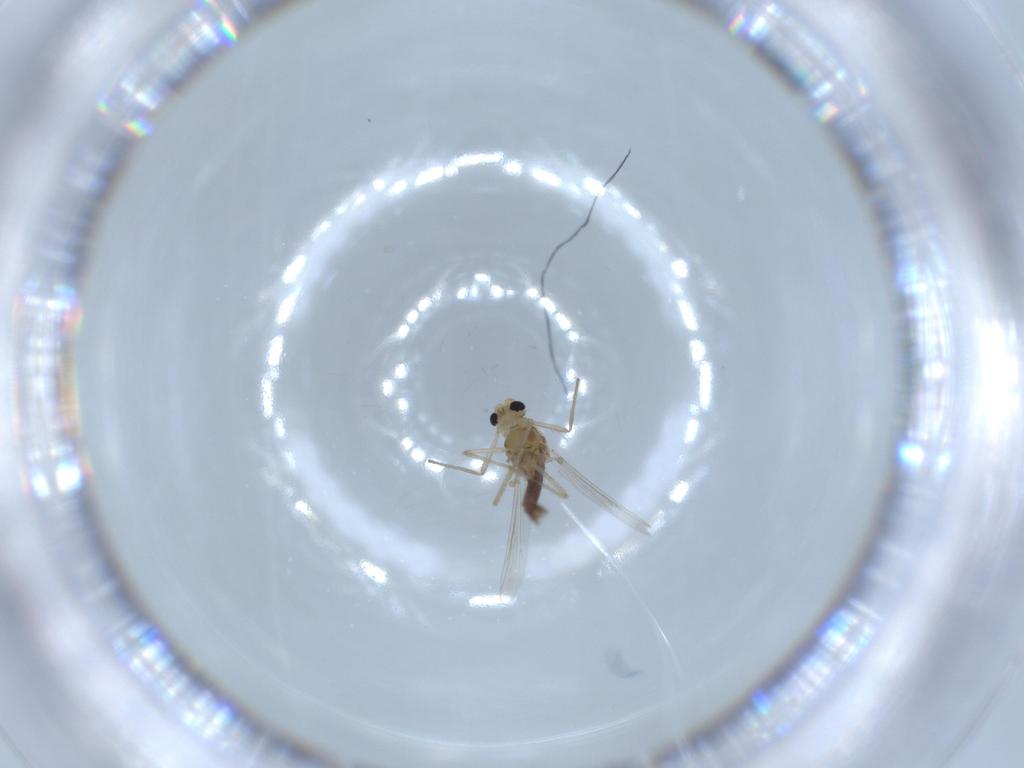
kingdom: Animalia
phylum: Arthropoda
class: Insecta
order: Diptera
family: Chironomidae
